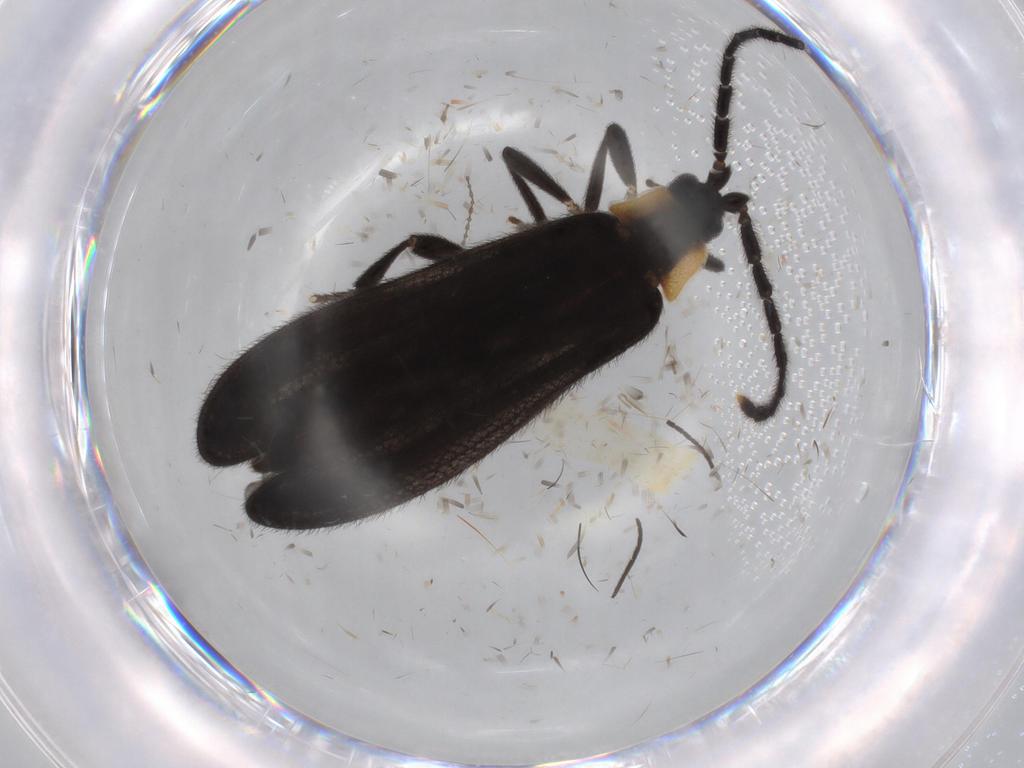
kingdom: Animalia
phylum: Arthropoda
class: Insecta
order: Coleoptera
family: Lycidae
